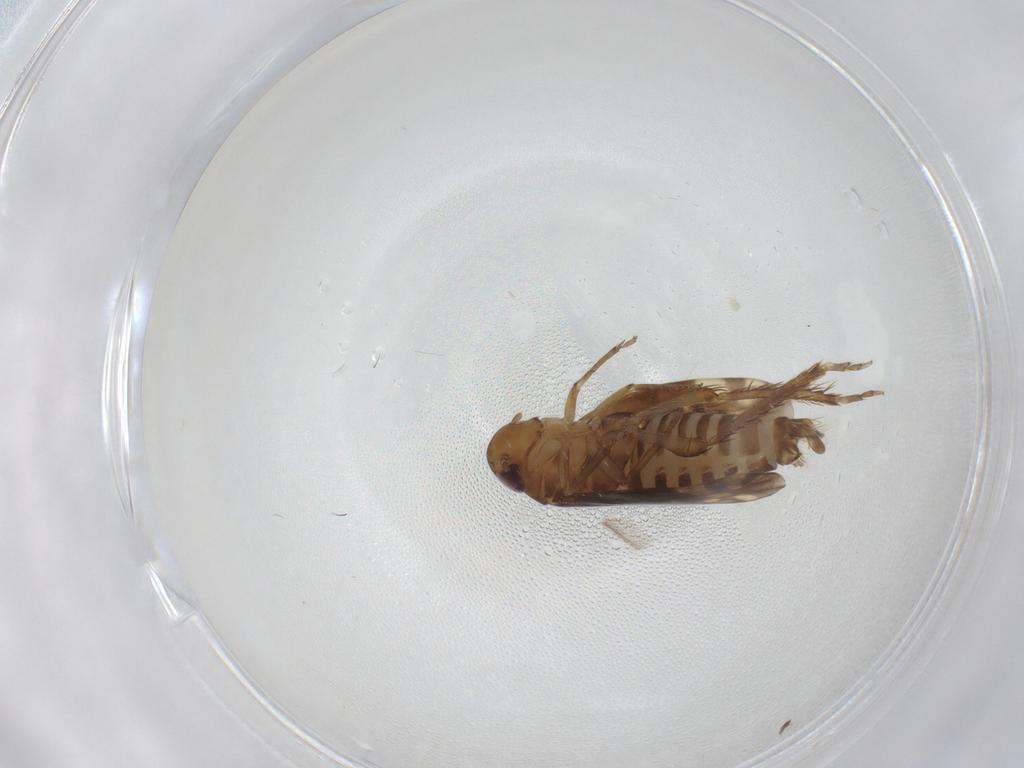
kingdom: Animalia
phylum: Arthropoda
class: Insecta
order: Hemiptera
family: Cicadellidae
